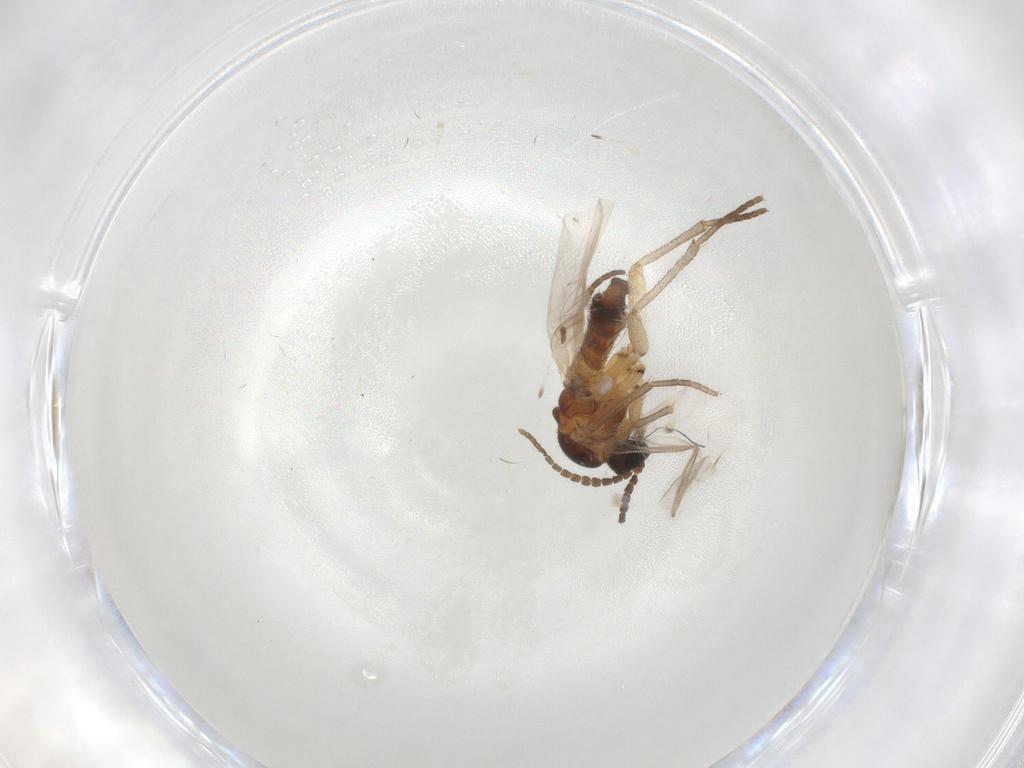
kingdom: Animalia
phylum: Arthropoda
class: Insecta
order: Diptera
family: Sciaridae
